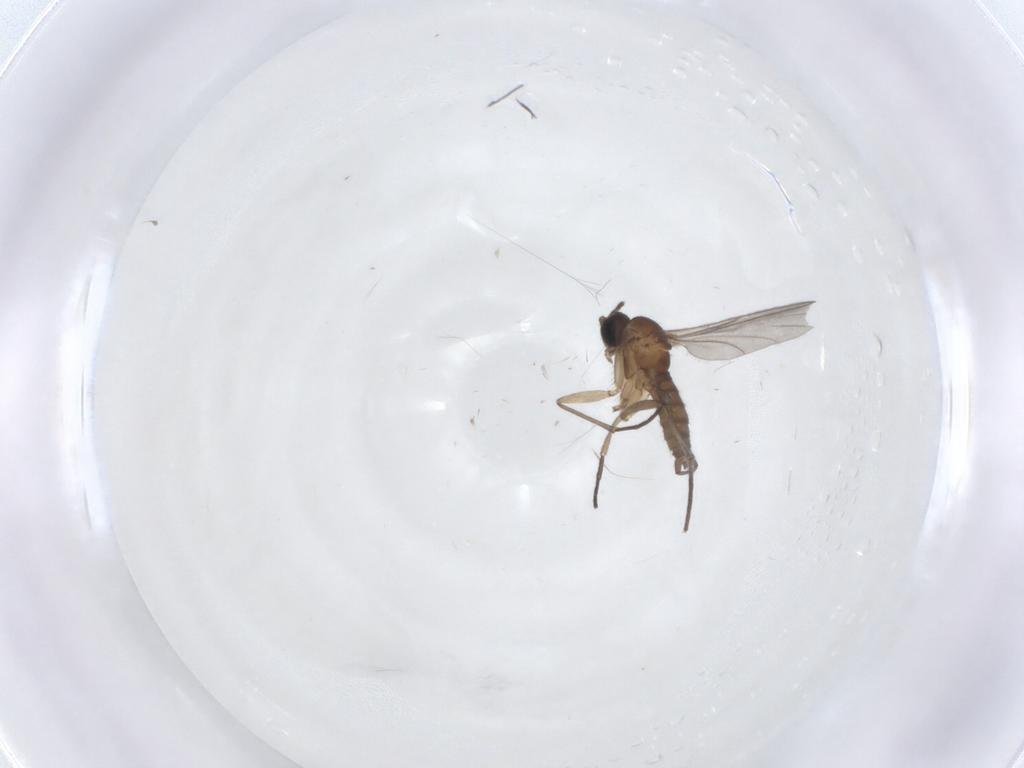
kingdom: Animalia
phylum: Arthropoda
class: Insecta
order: Diptera
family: Sciaridae
